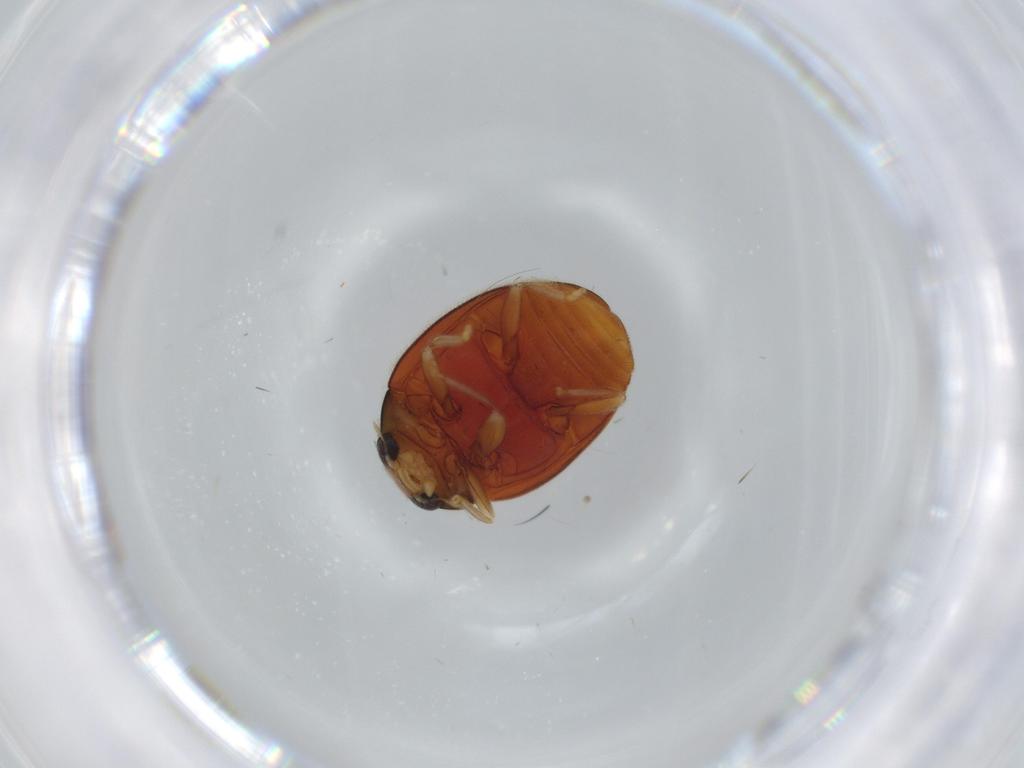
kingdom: Animalia
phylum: Arthropoda
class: Insecta
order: Coleoptera
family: Coccinellidae
